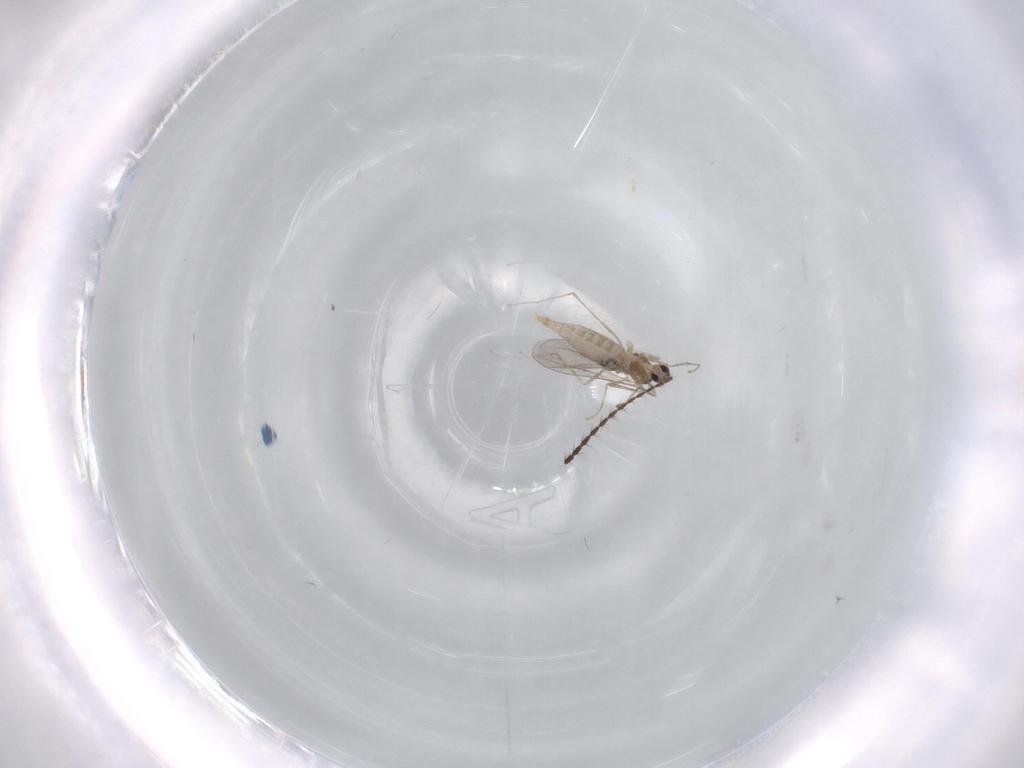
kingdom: Animalia
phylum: Arthropoda
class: Insecta
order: Diptera
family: Limoniidae
